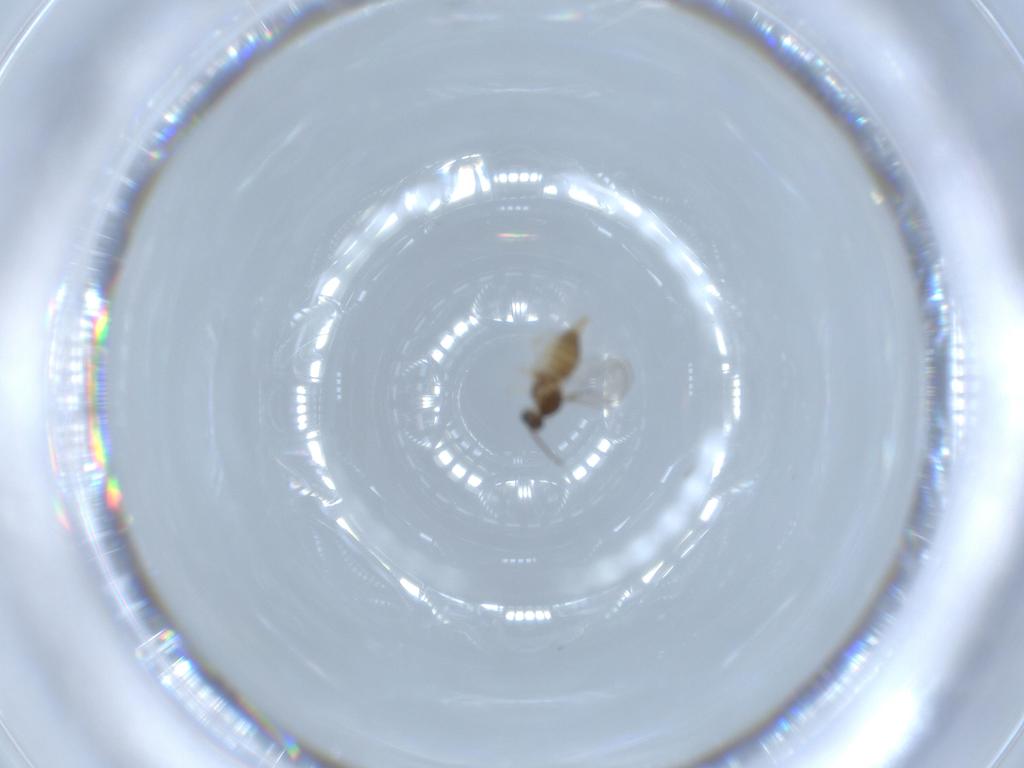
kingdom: Animalia
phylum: Arthropoda
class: Insecta
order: Diptera
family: Cecidomyiidae
